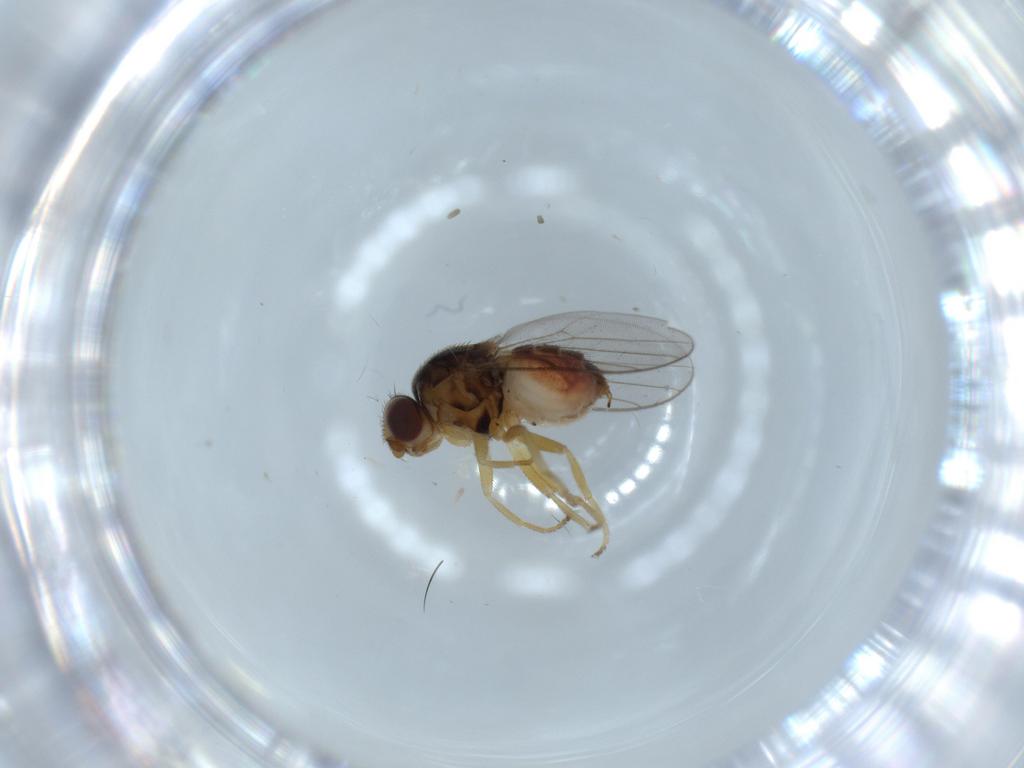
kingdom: Animalia
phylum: Arthropoda
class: Insecta
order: Diptera
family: Chloropidae
